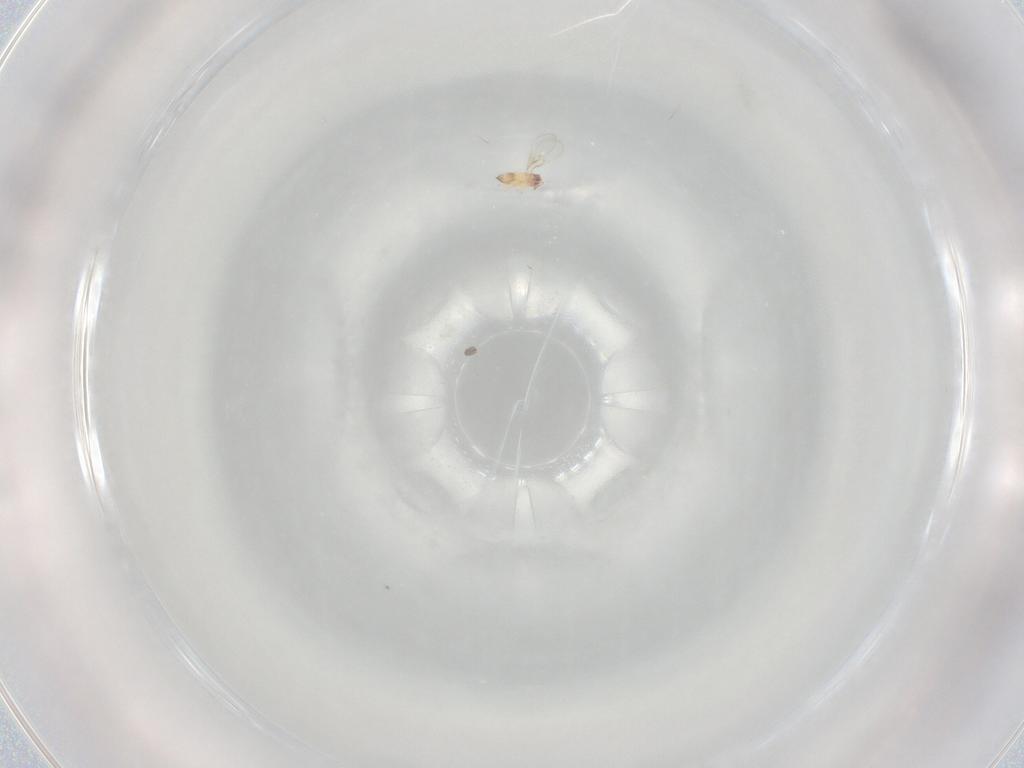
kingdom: Animalia
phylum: Arthropoda
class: Insecta
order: Hymenoptera
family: Trichogrammatidae
